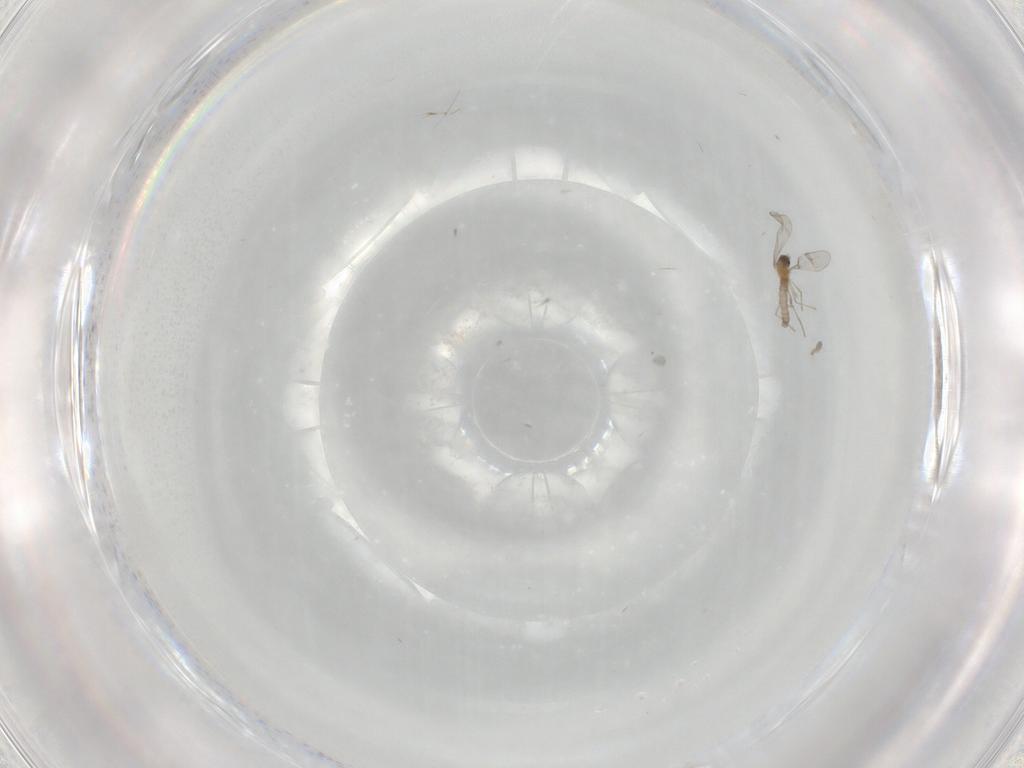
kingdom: Animalia
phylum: Arthropoda
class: Insecta
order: Diptera
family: Cecidomyiidae
